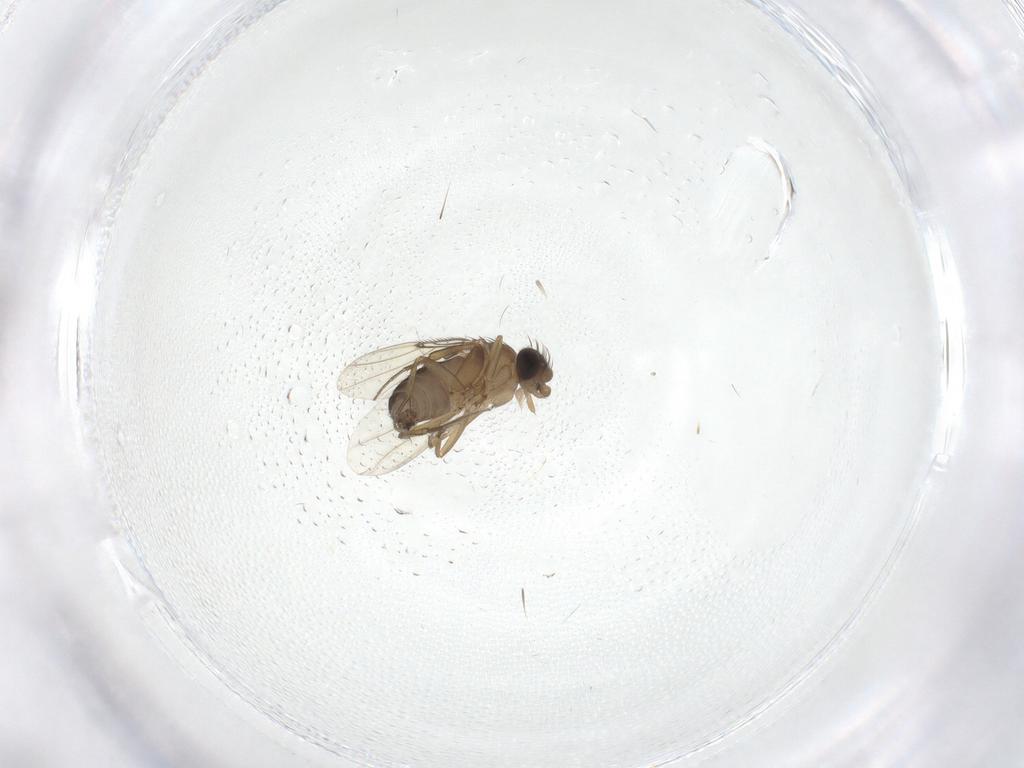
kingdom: Animalia
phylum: Arthropoda
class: Insecta
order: Diptera
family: Phoridae
